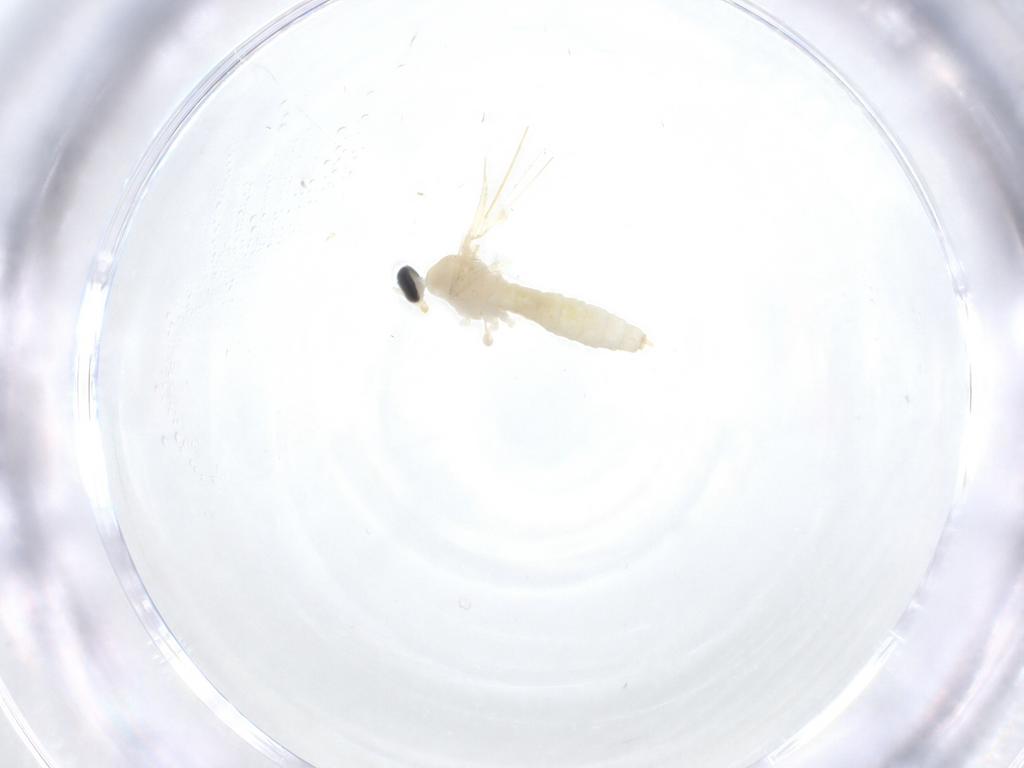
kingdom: Animalia
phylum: Arthropoda
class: Insecta
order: Diptera
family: Cecidomyiidae
